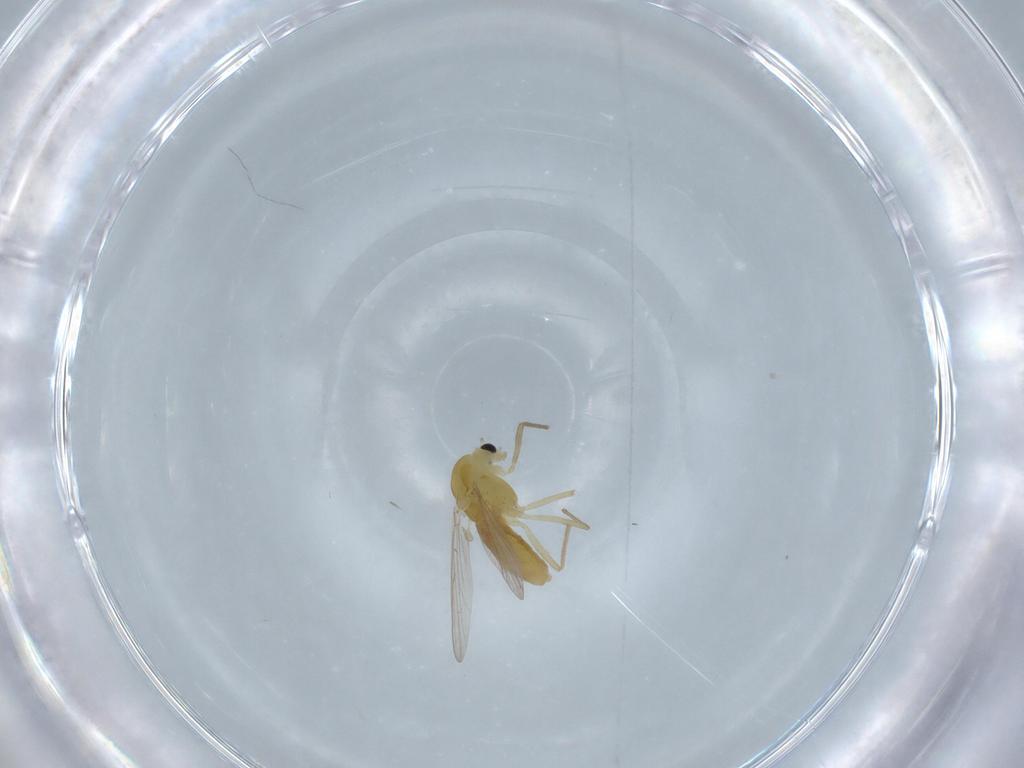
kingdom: Animalia
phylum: Arthropoda
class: Insecta
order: Diptera
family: Chironomidae
